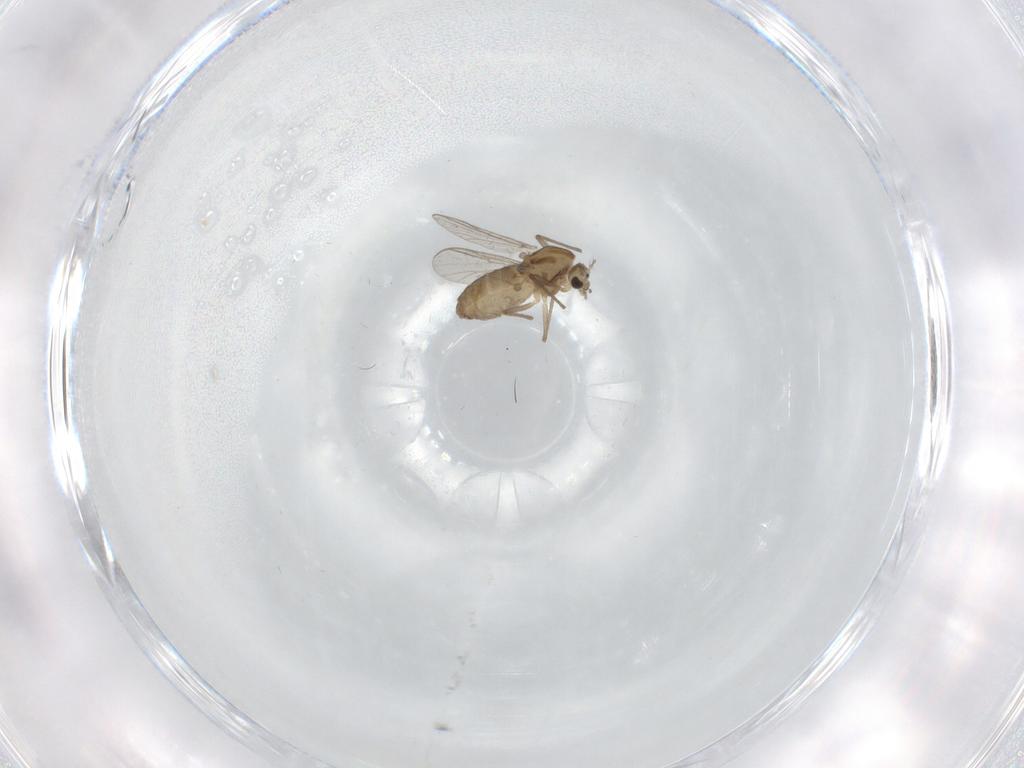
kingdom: Animalia
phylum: Arthropoda
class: Insecta
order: Diptera
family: Chironomidae
